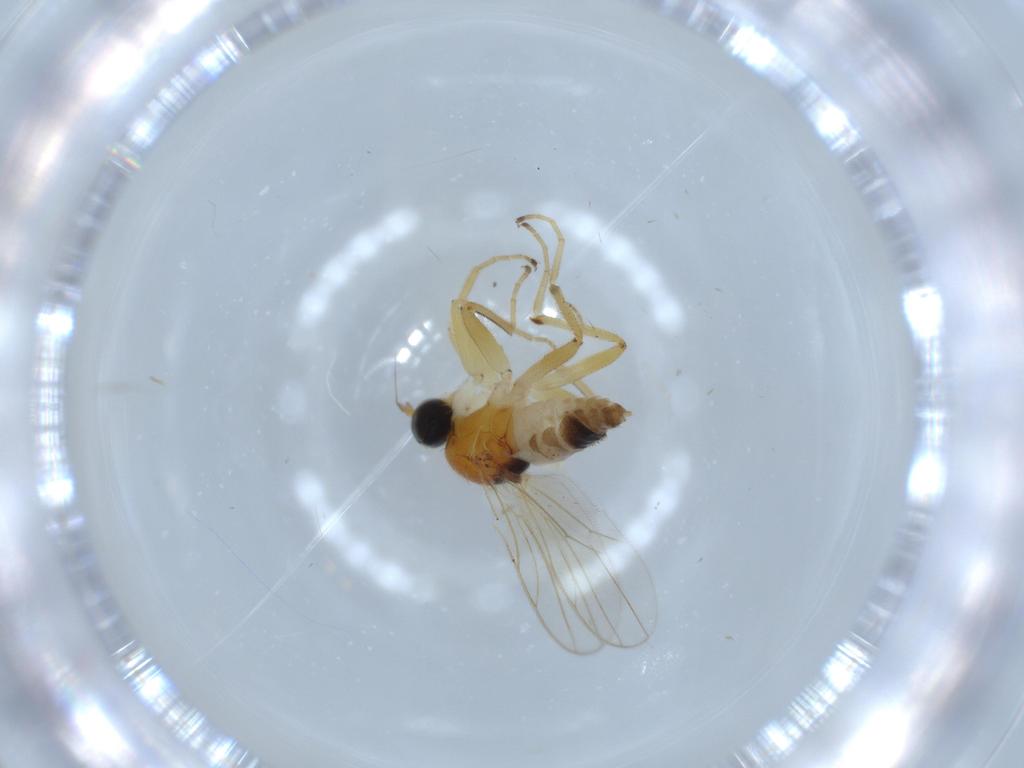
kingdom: Animalia
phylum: Arthropoda
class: Insecta
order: Diptera
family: Hybotidae
